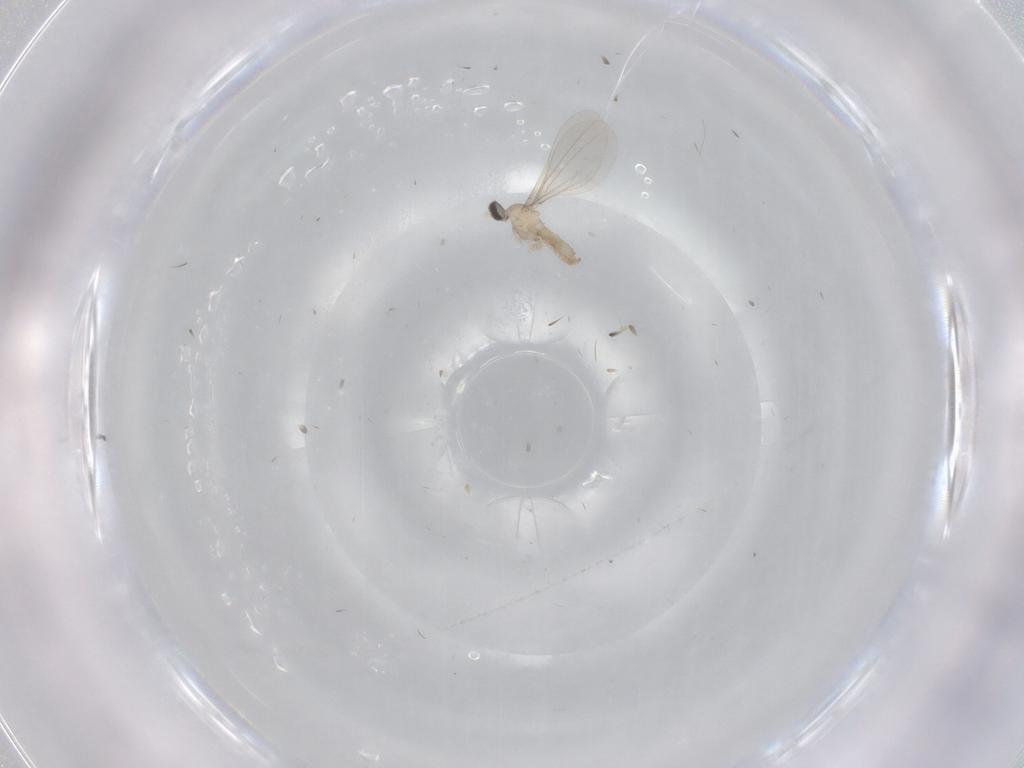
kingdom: Animalia
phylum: Arthropoda
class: Insecta
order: Diptera
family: Cecidomyiidae
